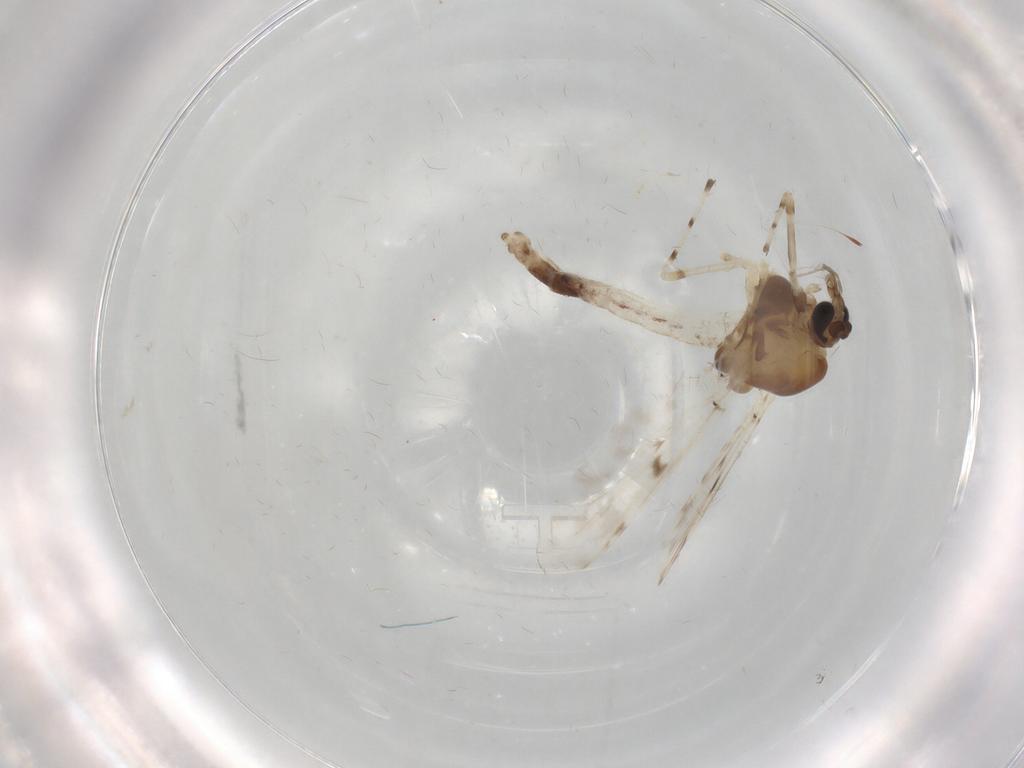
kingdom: Animalia
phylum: Arthropoda
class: Insecta
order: Diptera
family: Chironomidae
